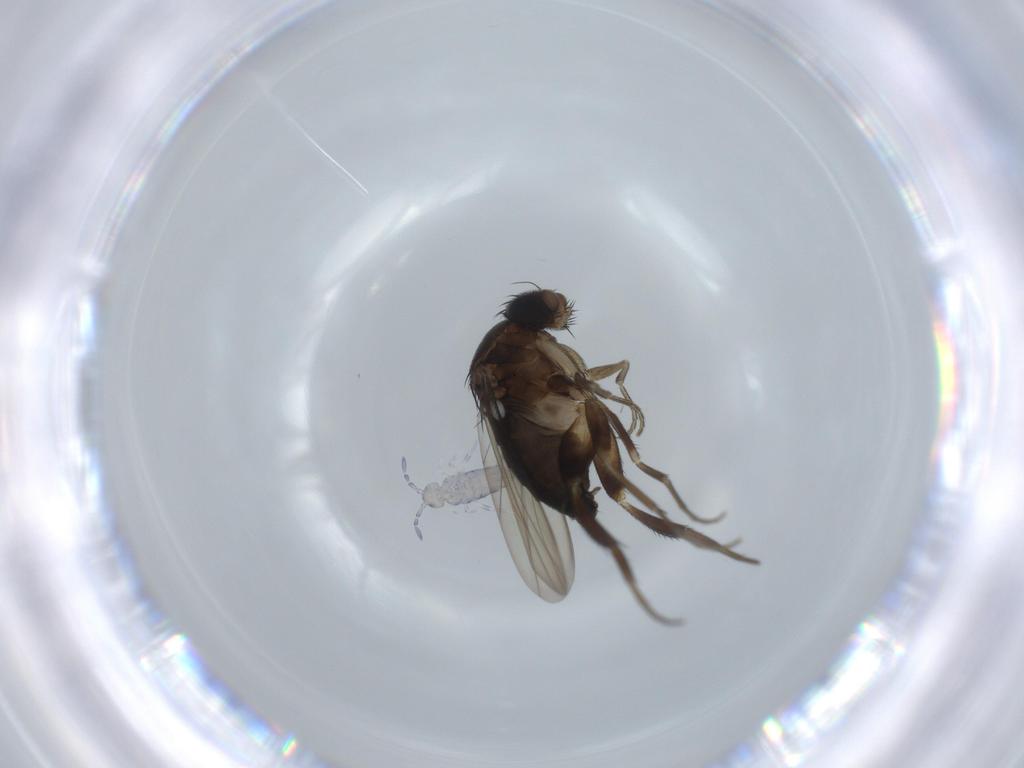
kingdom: Animalia
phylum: Arthropoda
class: Insecta
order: Diptera
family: Phoridae
